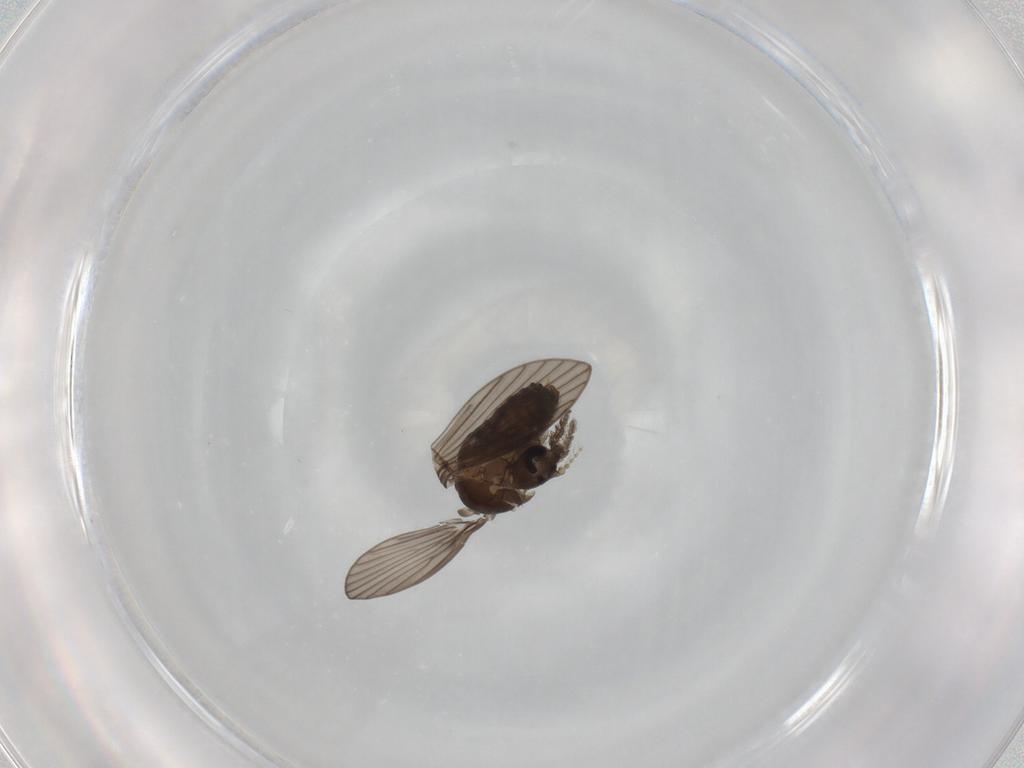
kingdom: Animalia
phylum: Arthropoda
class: Insecta
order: Diptera
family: Psychodidae
